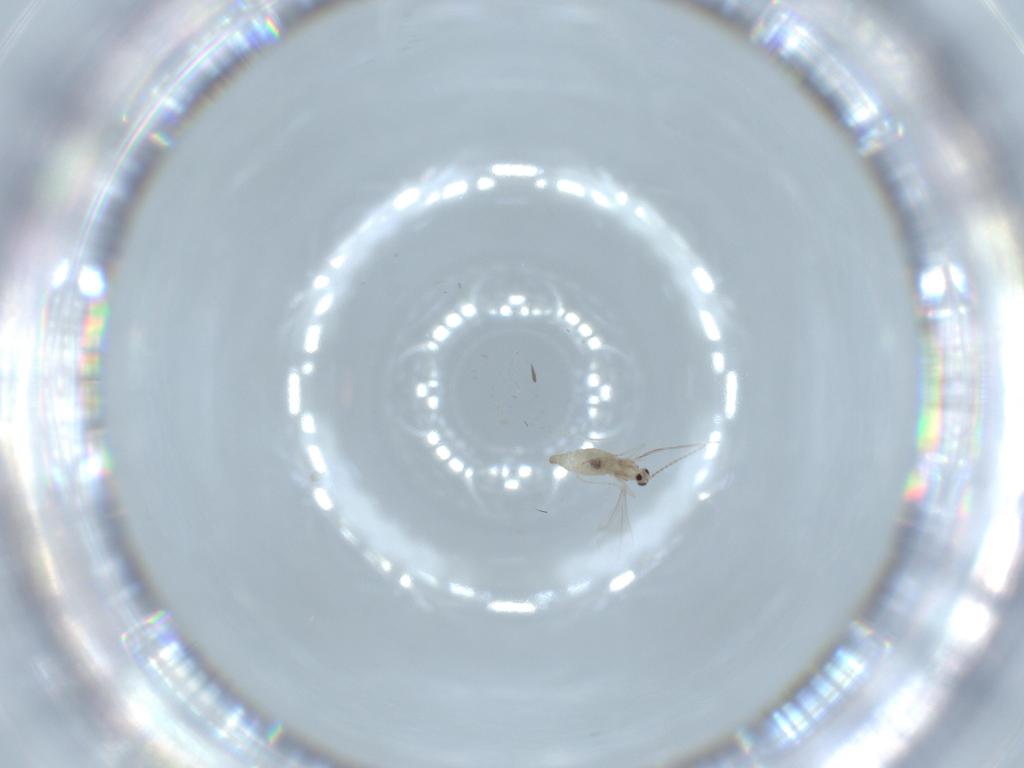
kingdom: Animalia
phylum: Arthropoda
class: Insecta
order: Diptera
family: Cecidomyiidae
